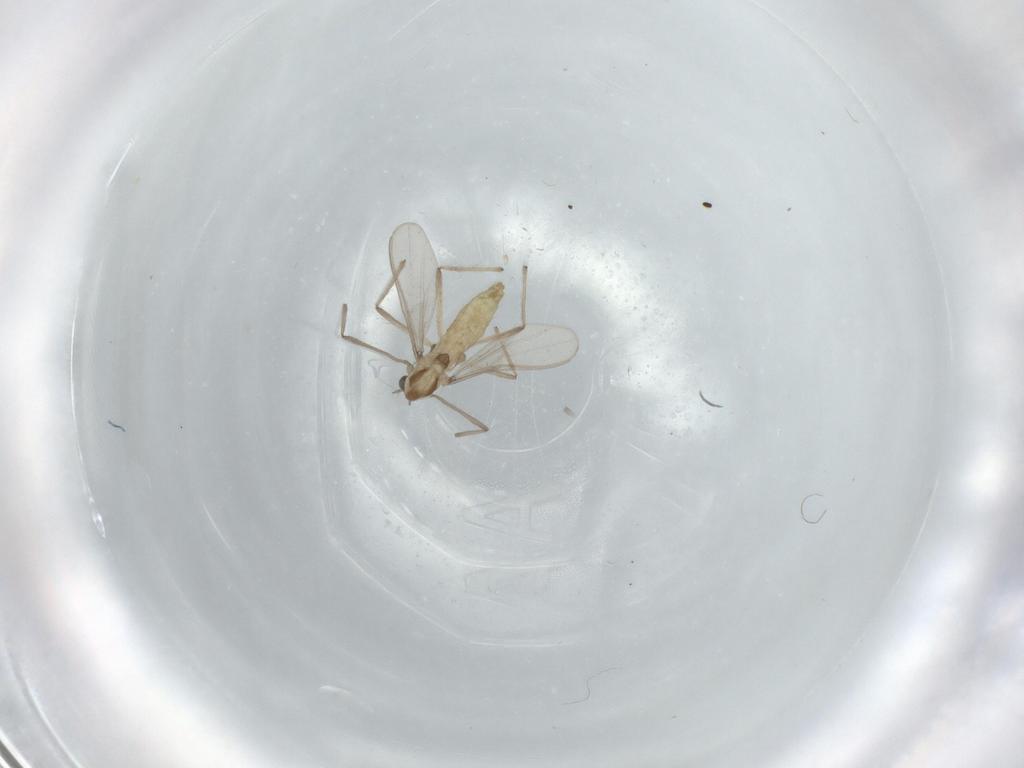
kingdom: Animalia
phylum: Arthropoda
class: Insecta
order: Diptera
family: Chironomidae
